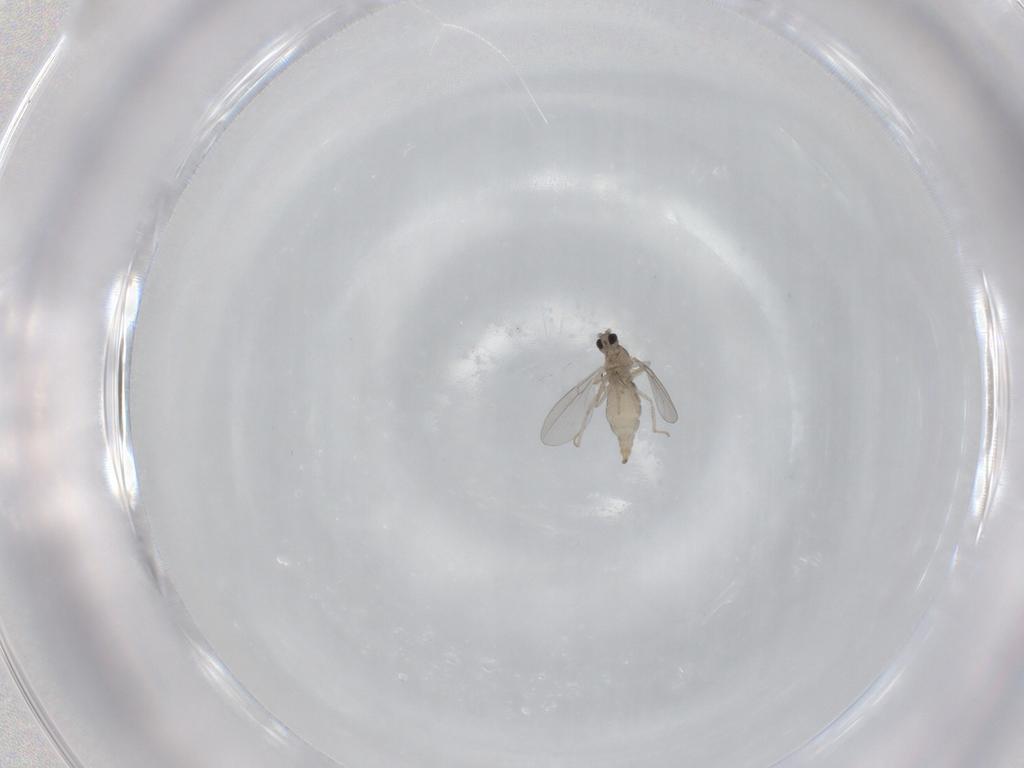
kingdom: Animalia
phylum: Arthropoda
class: Insecta
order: Diptera
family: Cecidomyiidae
